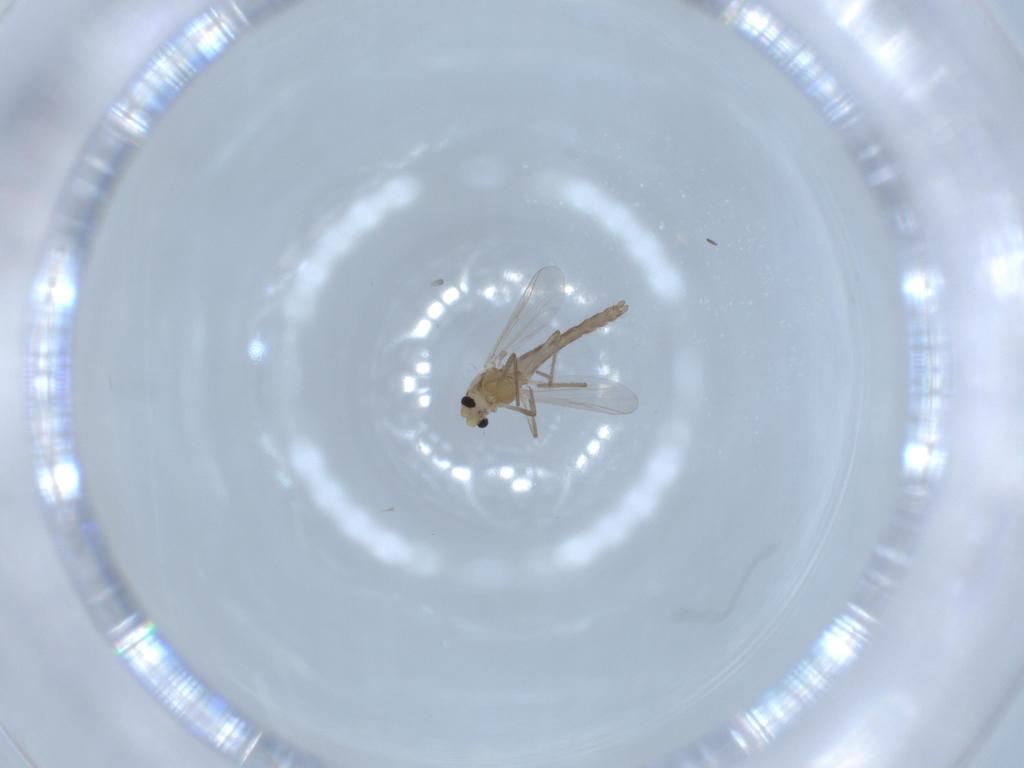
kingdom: Animalia
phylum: Arthropoda
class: Insecta
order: Diptera
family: Chironomidae
